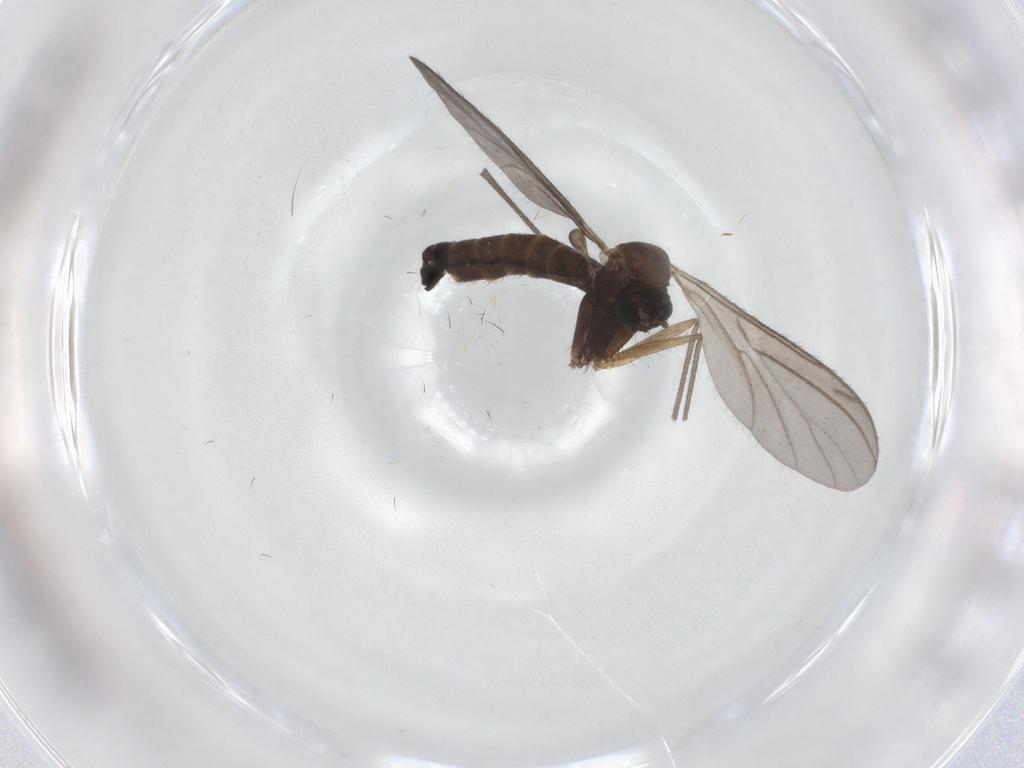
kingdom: Animalia
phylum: Arthropoda
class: Insecta
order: Diptera
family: Ditomyiidae
